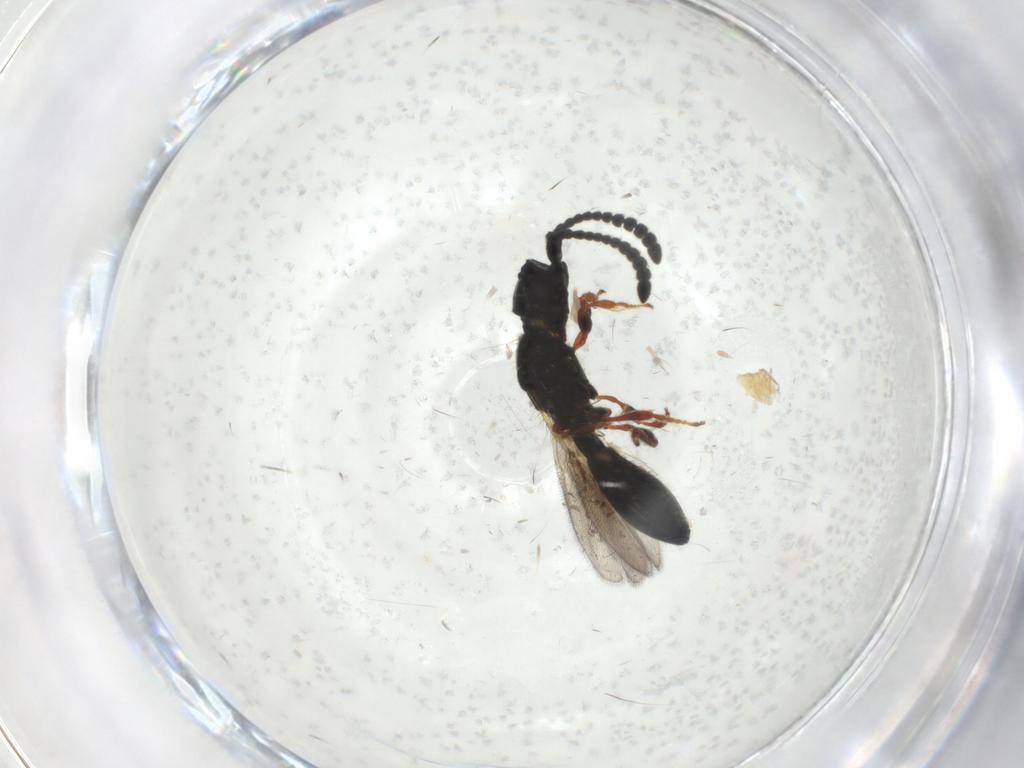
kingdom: Animalia
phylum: Arthropoda
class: Insecta
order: Diptera
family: Cecidomyiidae
